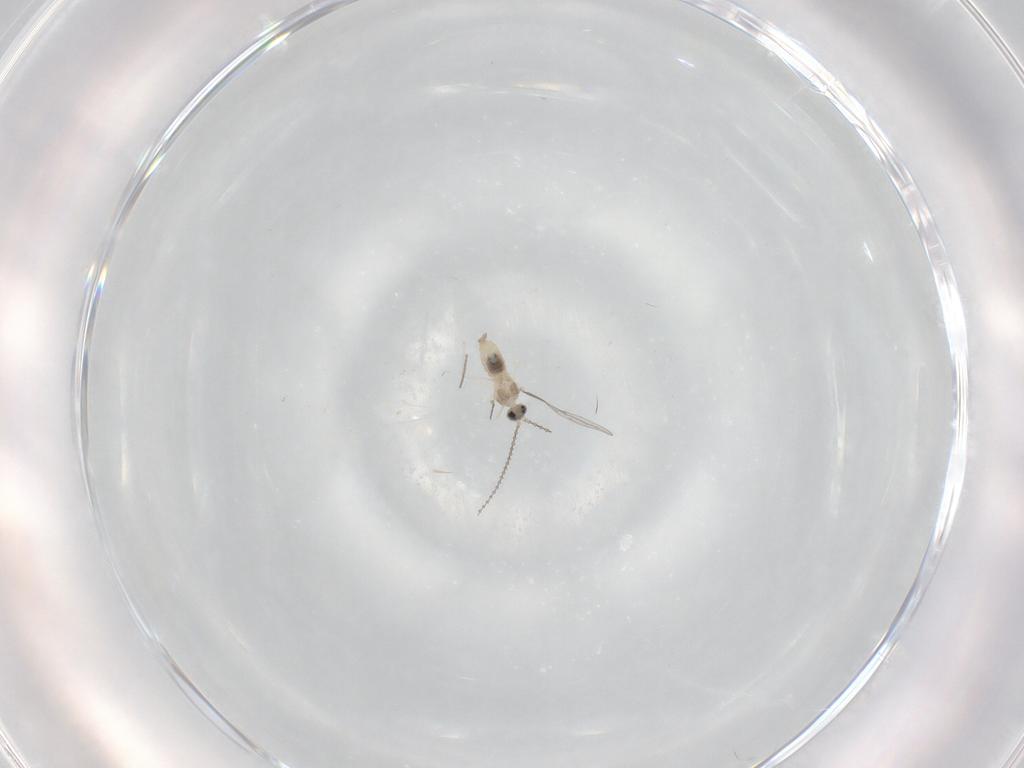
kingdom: Animalia
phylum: Arthropoda
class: Insecta
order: Diptera
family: Cecidomyiidae
